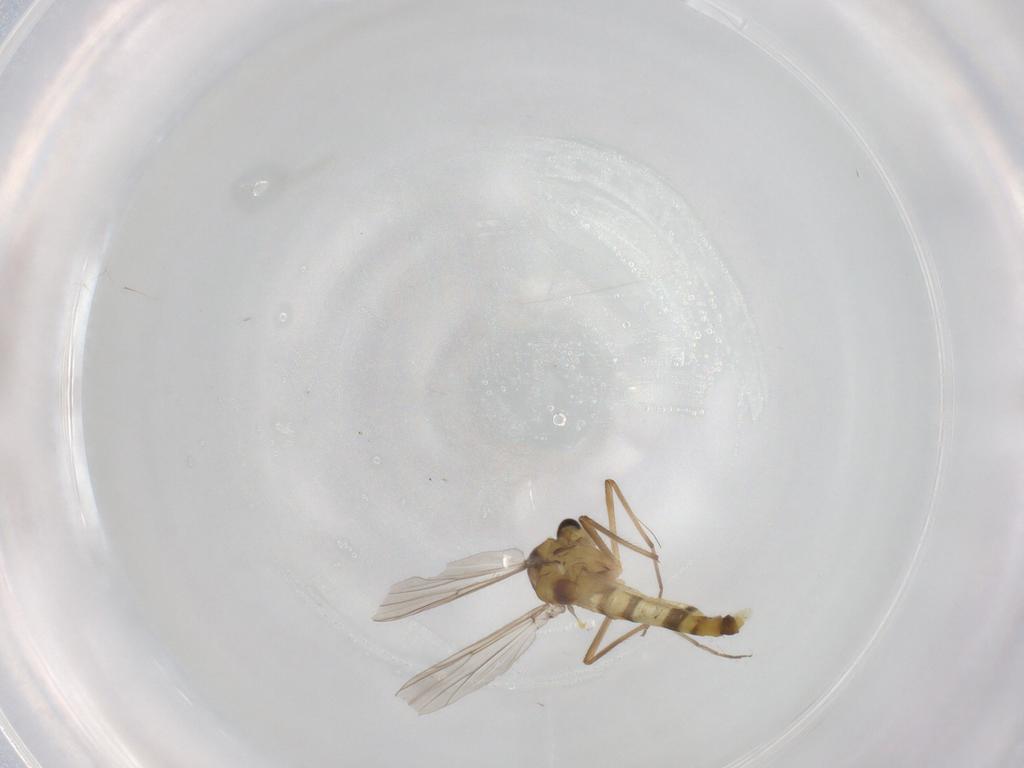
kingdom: Animalia
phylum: Arthropoda
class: Insecta
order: Diptera
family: Chironomidae
